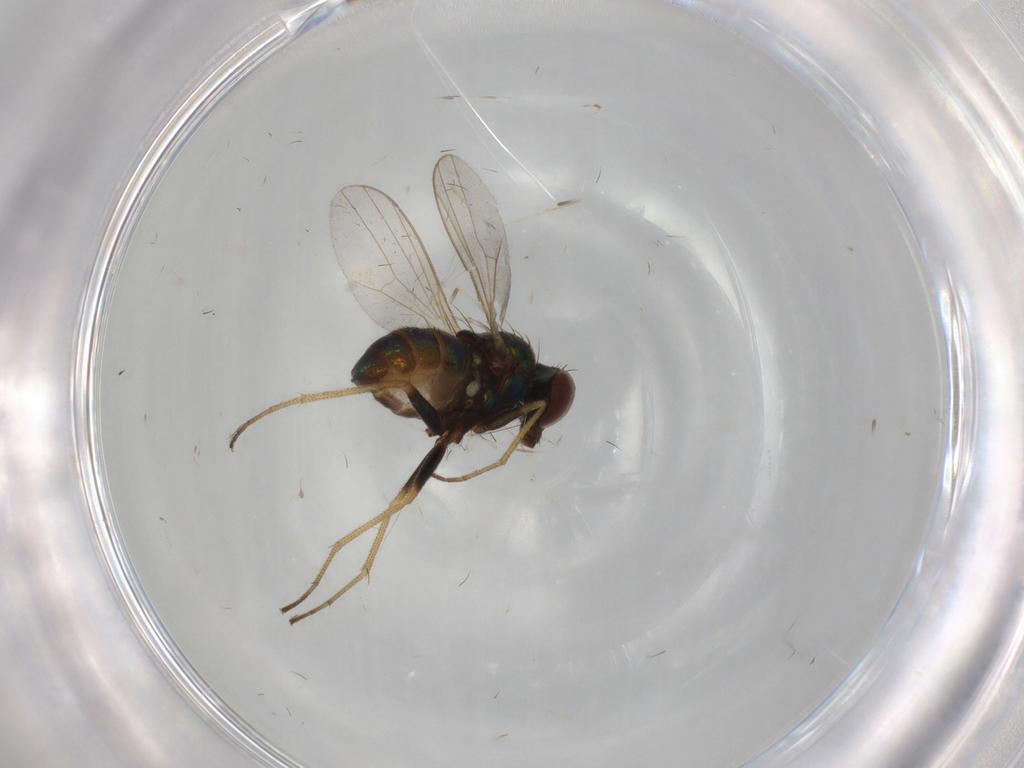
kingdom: Animalia
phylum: Arthropoda
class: Insecta
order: Diptera
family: Dolichopodidae
